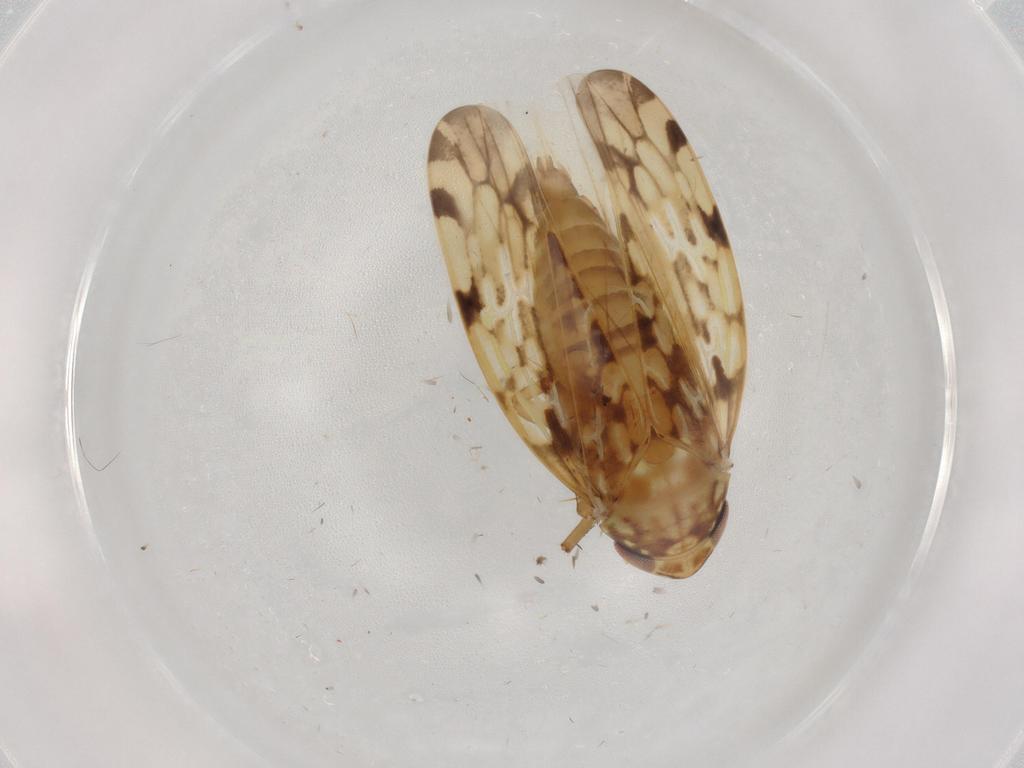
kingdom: Animalia
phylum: Arthropoda
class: Insecta
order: Hemiptera
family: Cicadellidae
